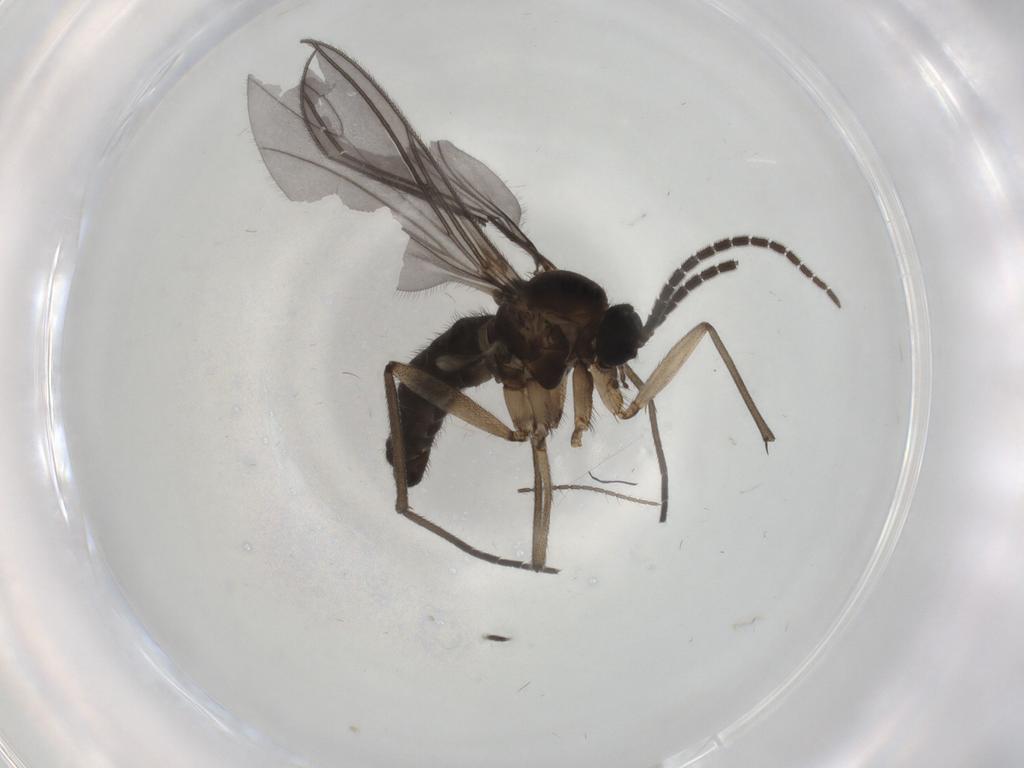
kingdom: Animalia
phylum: Arthropoda
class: Insecta
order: Diptera
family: Sciaridae
